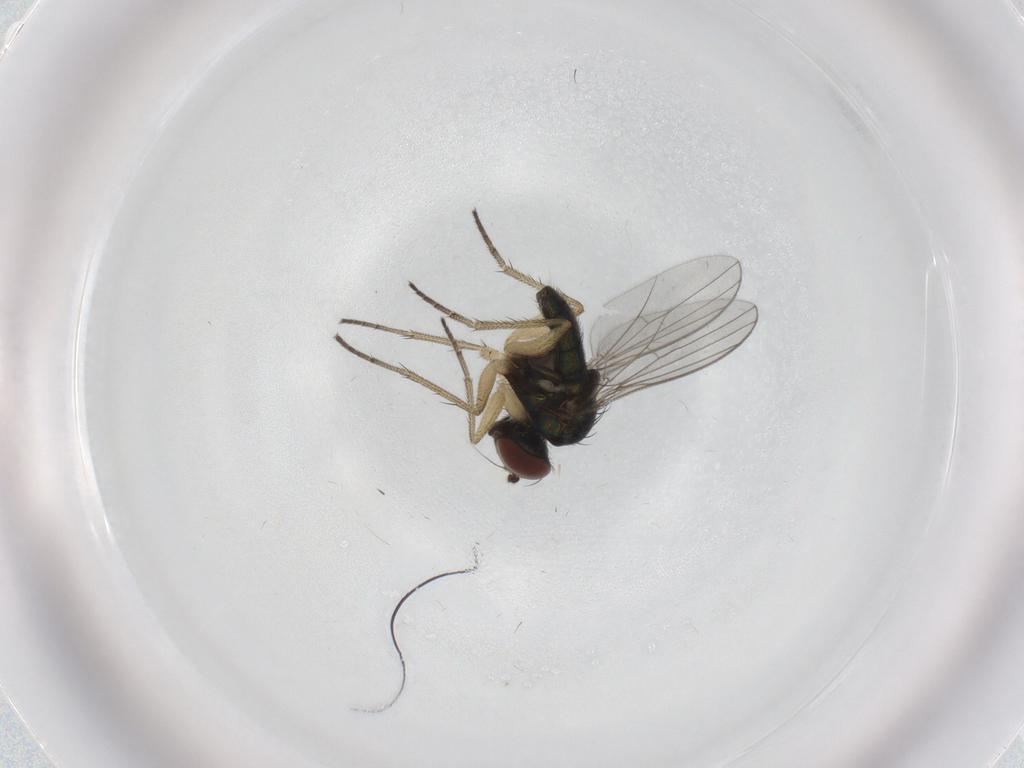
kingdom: Animalia
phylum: Arthropoda
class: Insecta
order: Diptera
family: Dolichopodidae
